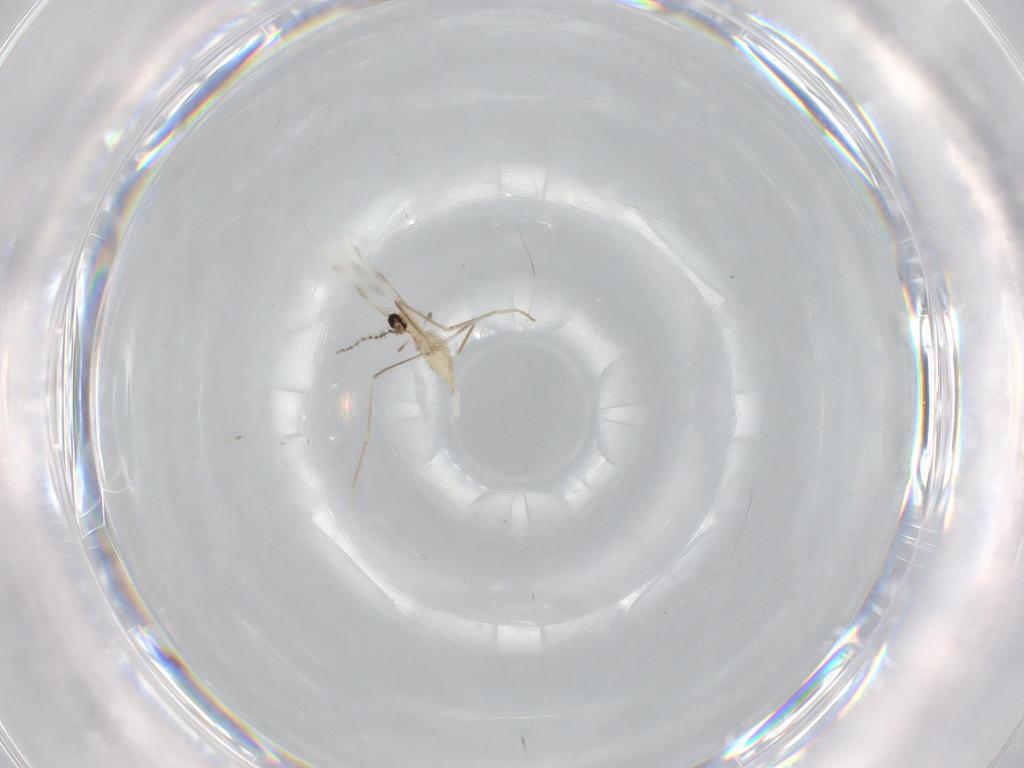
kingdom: Animalia
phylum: Arthropoda
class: Insecta
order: Diptera
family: Cecidomyiidae
